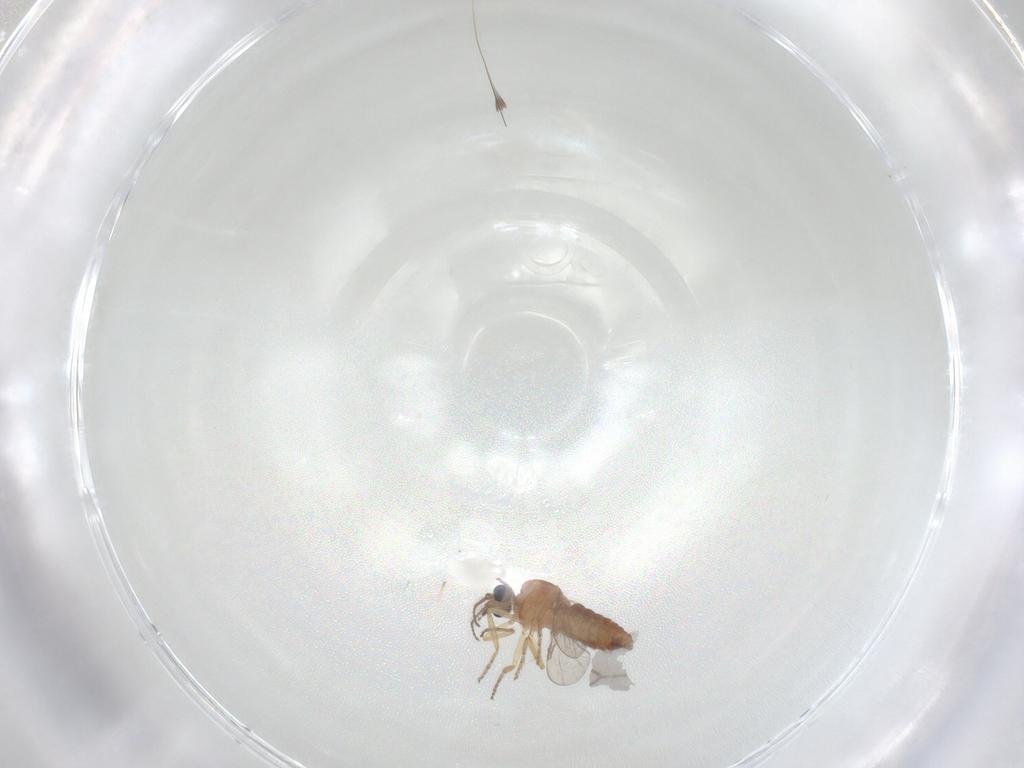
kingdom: Animalia
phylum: Arthropoda
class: Insecta
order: Diptera
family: Ceratopogonidae
